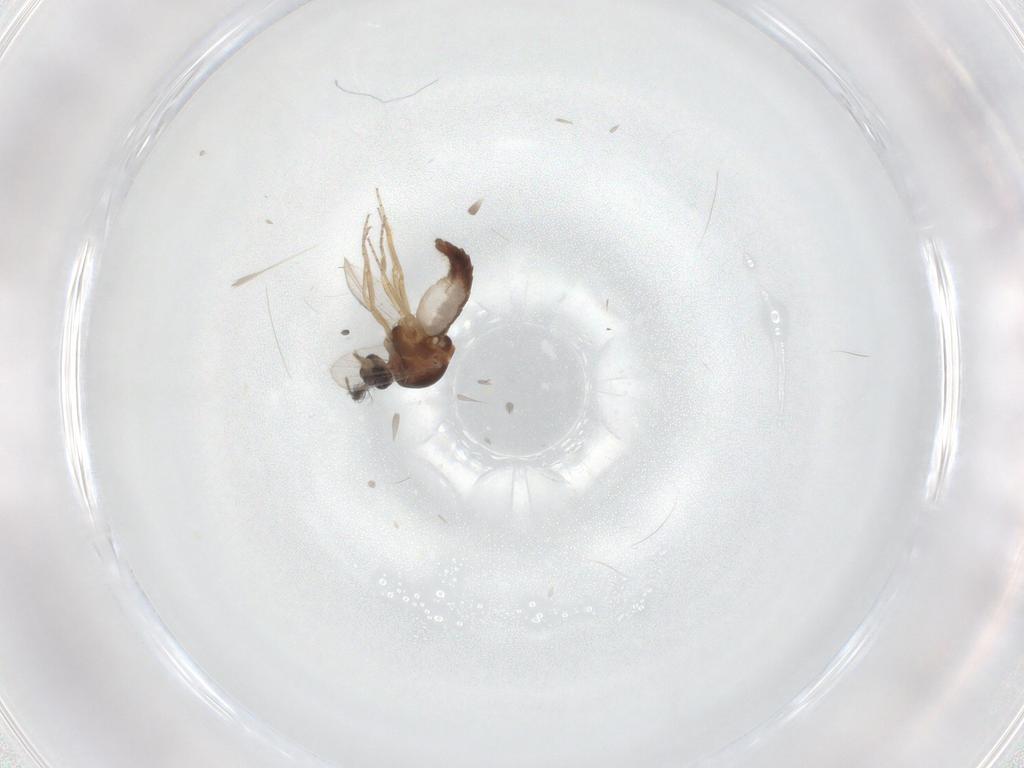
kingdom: Animalia
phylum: Arthropoda
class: Insecta
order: Diptera
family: Ceratopogonidae
